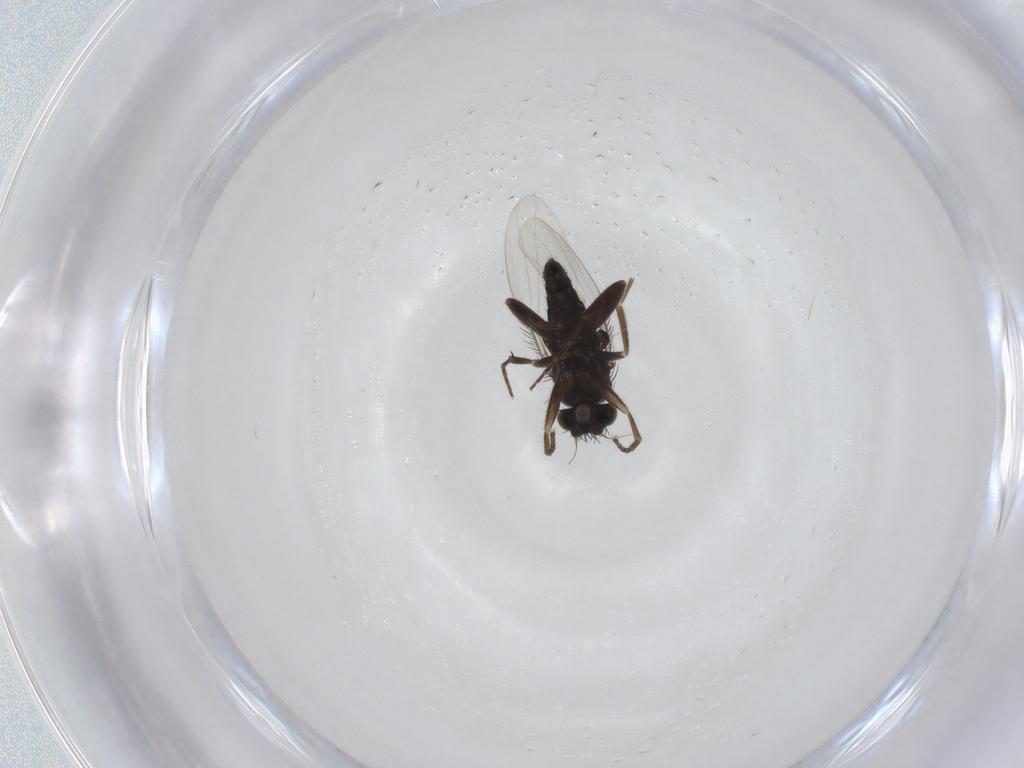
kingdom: Animalia
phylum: Arthropoda
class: Insecta
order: Diptera
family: Phoridae
